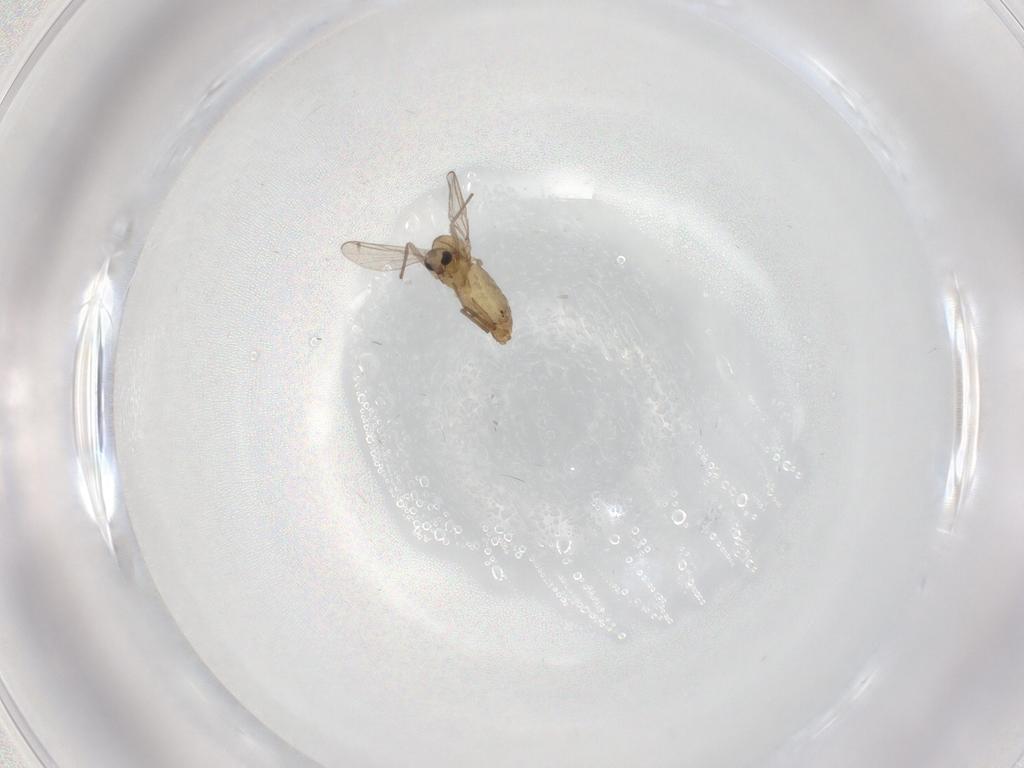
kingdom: Animalia
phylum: Arthropoda
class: Insecta
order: Diptera
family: Chironomidae
